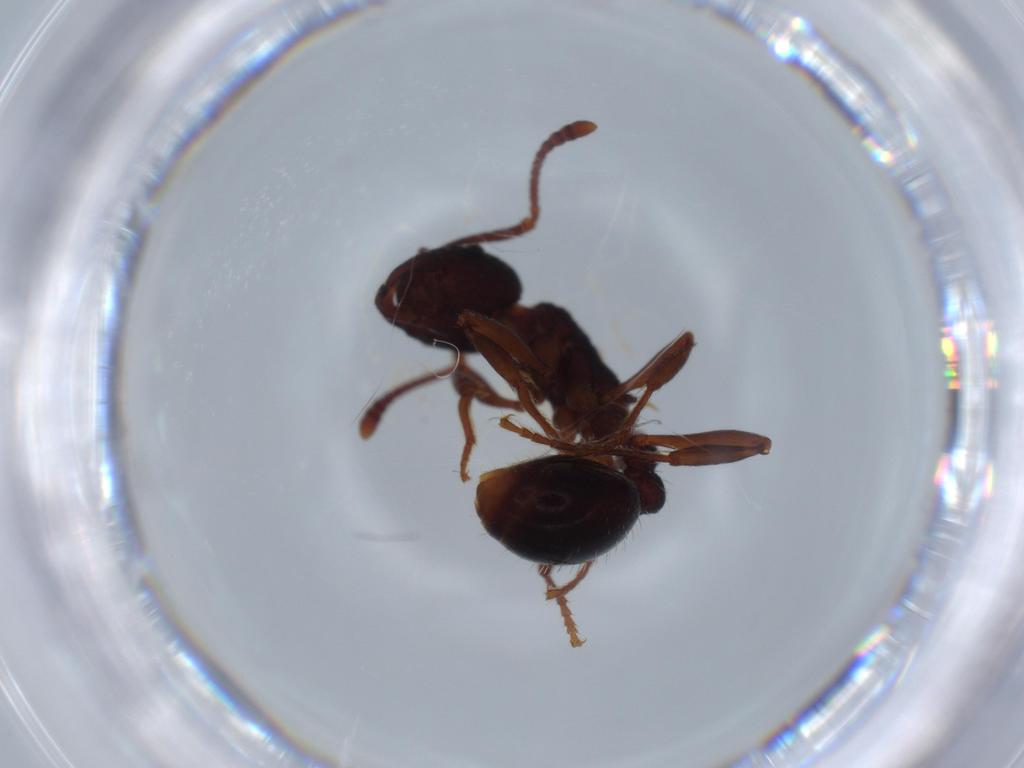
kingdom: Animalia
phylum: Arthropoda
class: Insecta
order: Hymenoptera
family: Formicidae
